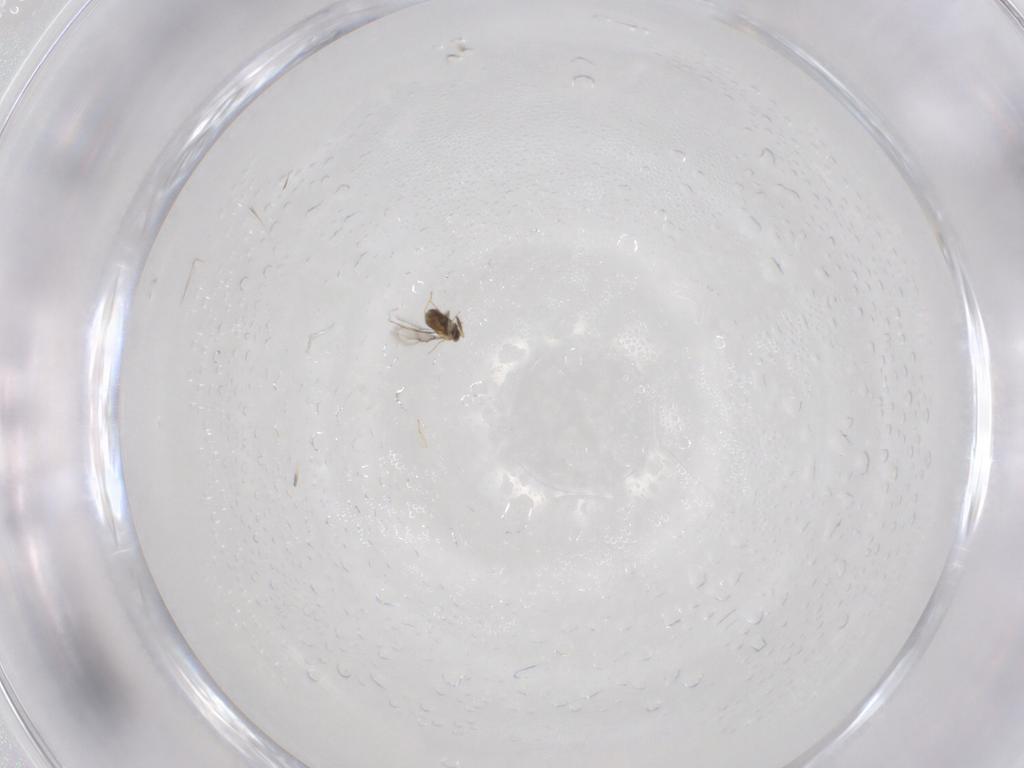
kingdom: Animalia
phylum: Arthropoda
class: Insecta
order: Hymenoptera
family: Trichogrammatidae
